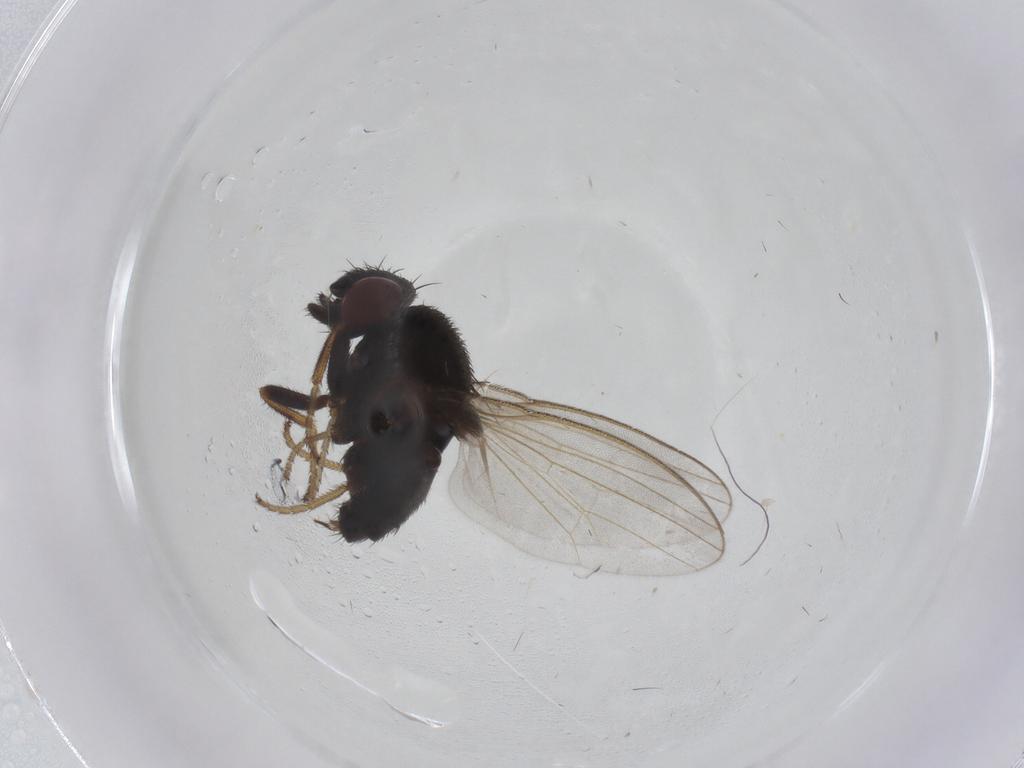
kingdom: Animalia
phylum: Arthropoda
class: Insecta
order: Diptera
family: Milichiidae
